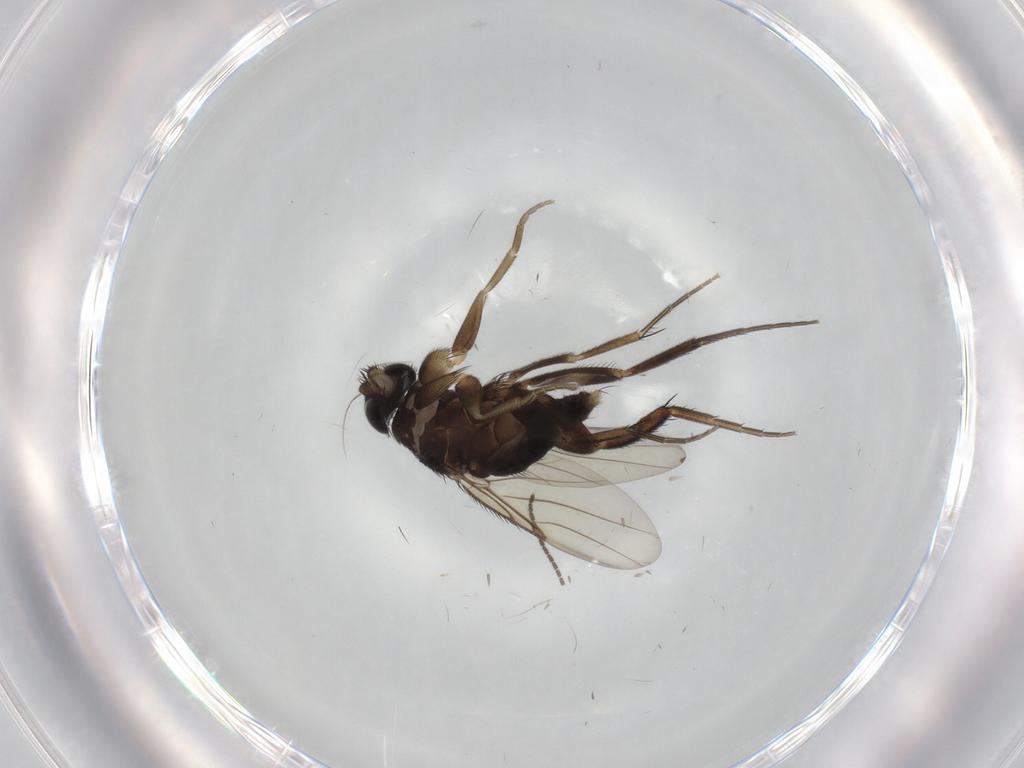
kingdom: Animalia
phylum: Arthropoda
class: Insecta
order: Diptera
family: Phoridae
